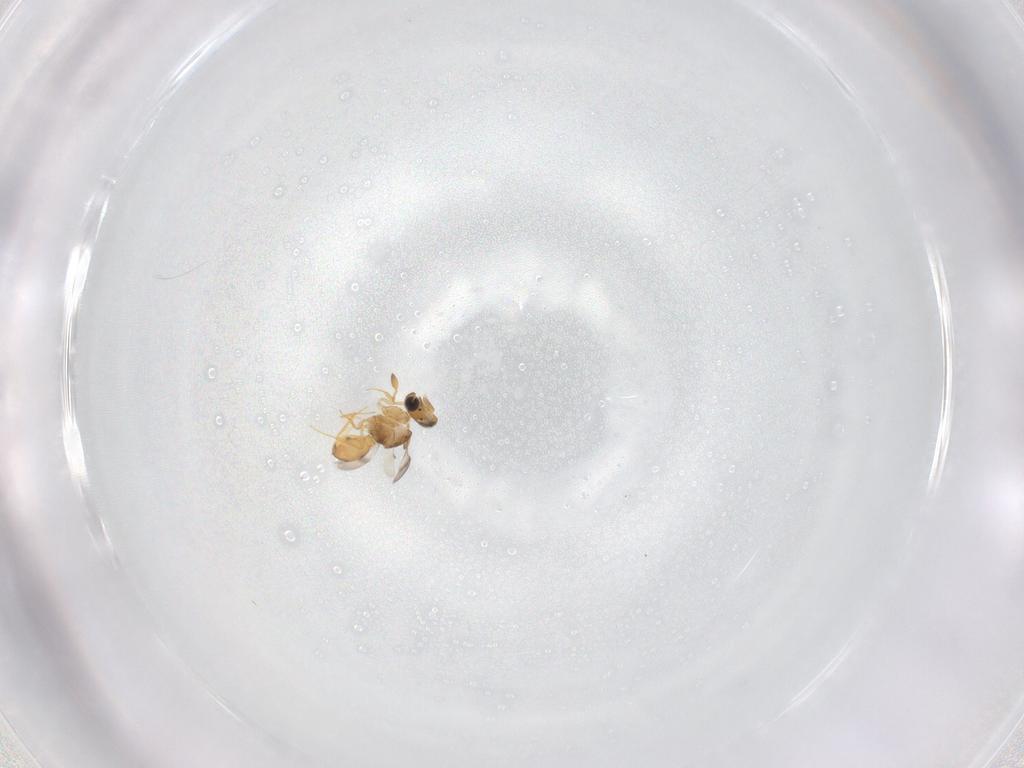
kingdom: Animalia
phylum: Arthropoda
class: Insecta
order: Hymenoptera
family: Scelionidae
